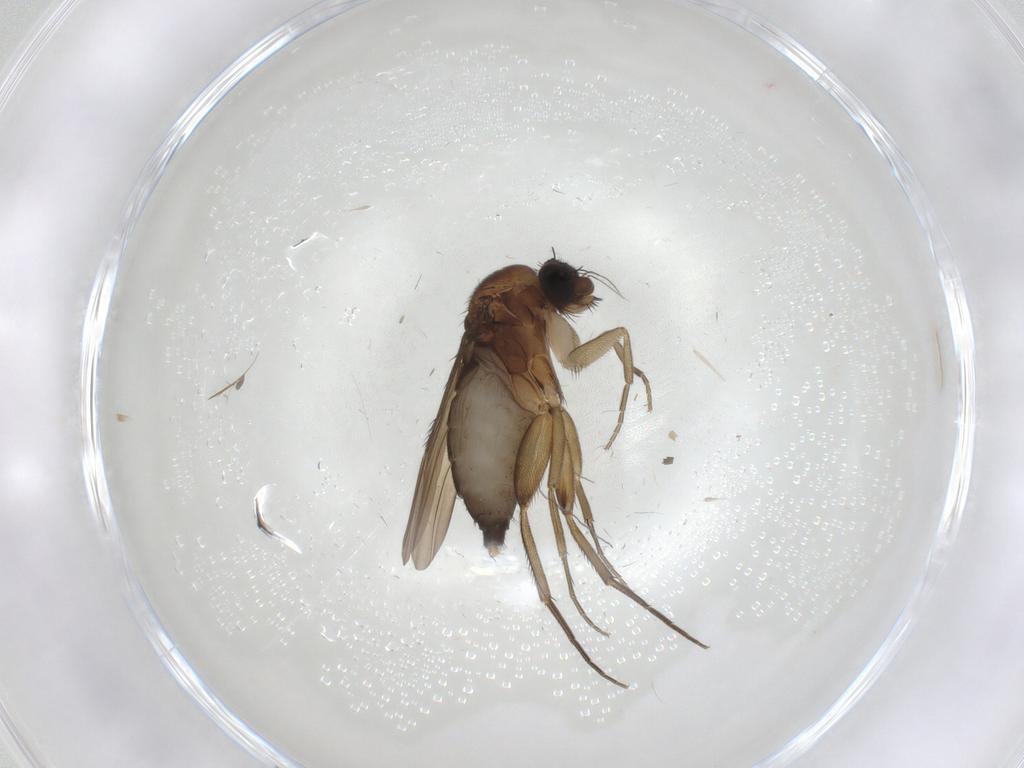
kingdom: Animalia
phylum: Arthropoda
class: Insecta
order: Diptera
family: Phoridae
